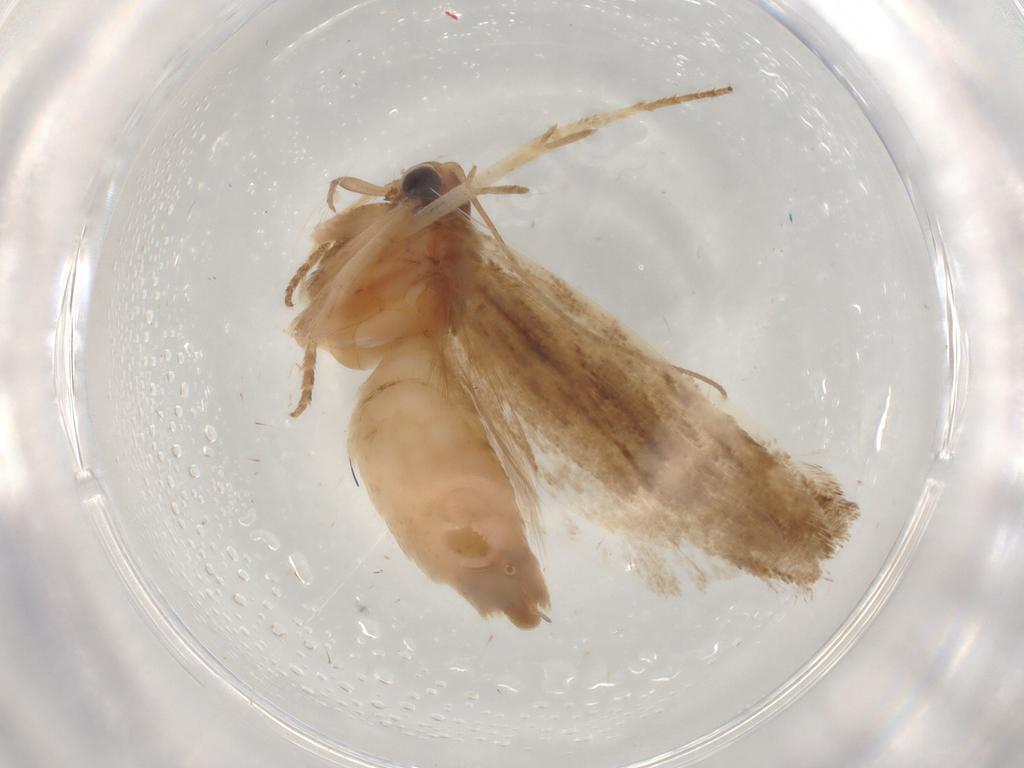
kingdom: Animalia
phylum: Arthropoda
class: Insecta
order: Lepidoptera
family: Gelechiidae
